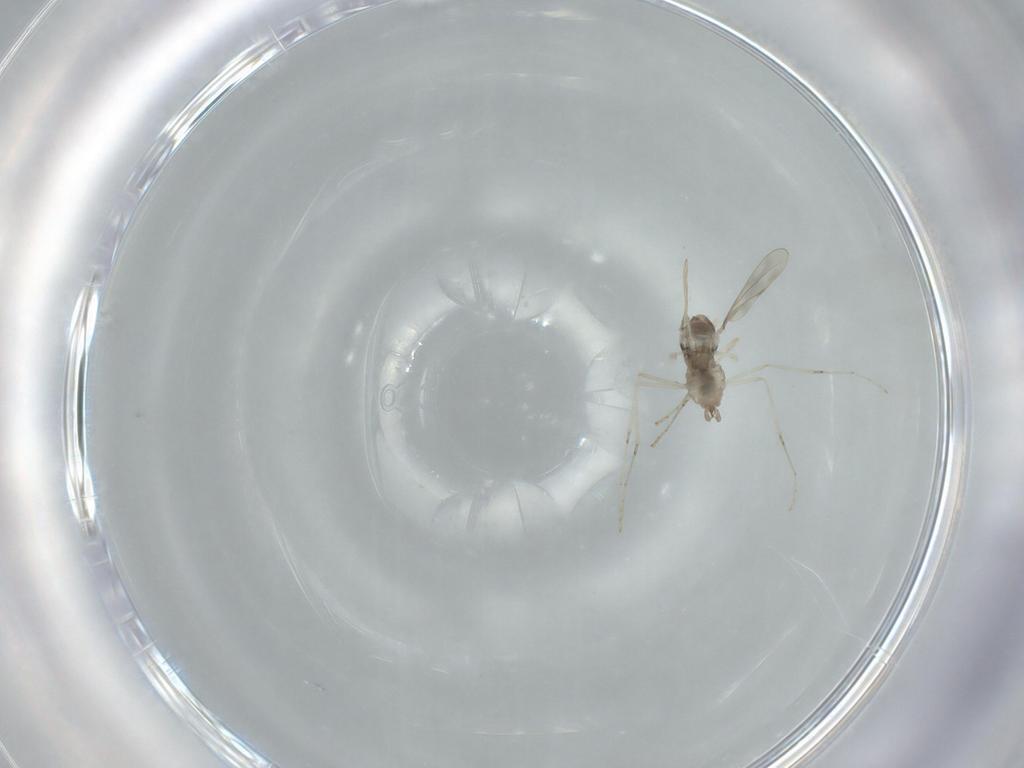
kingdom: Animalia
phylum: Arthropoda
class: Insecta
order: Diptera
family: Cecidomyiidae
